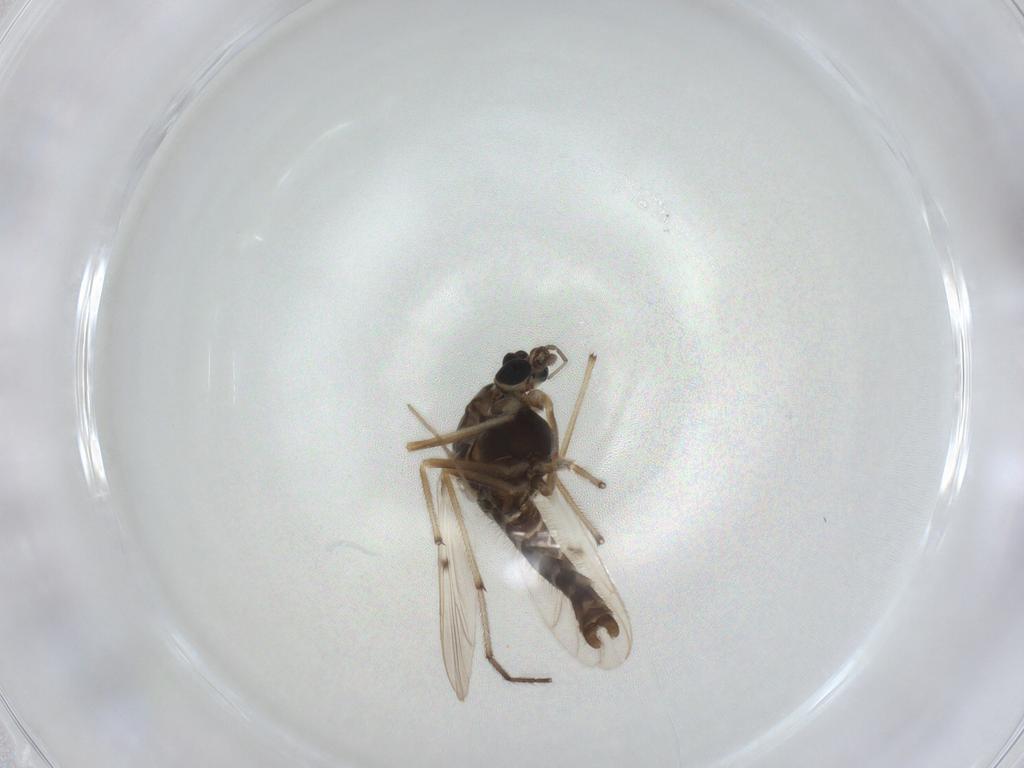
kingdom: Animalia
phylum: Arthropoda
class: Insecta
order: Diptera
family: Chironomidae
